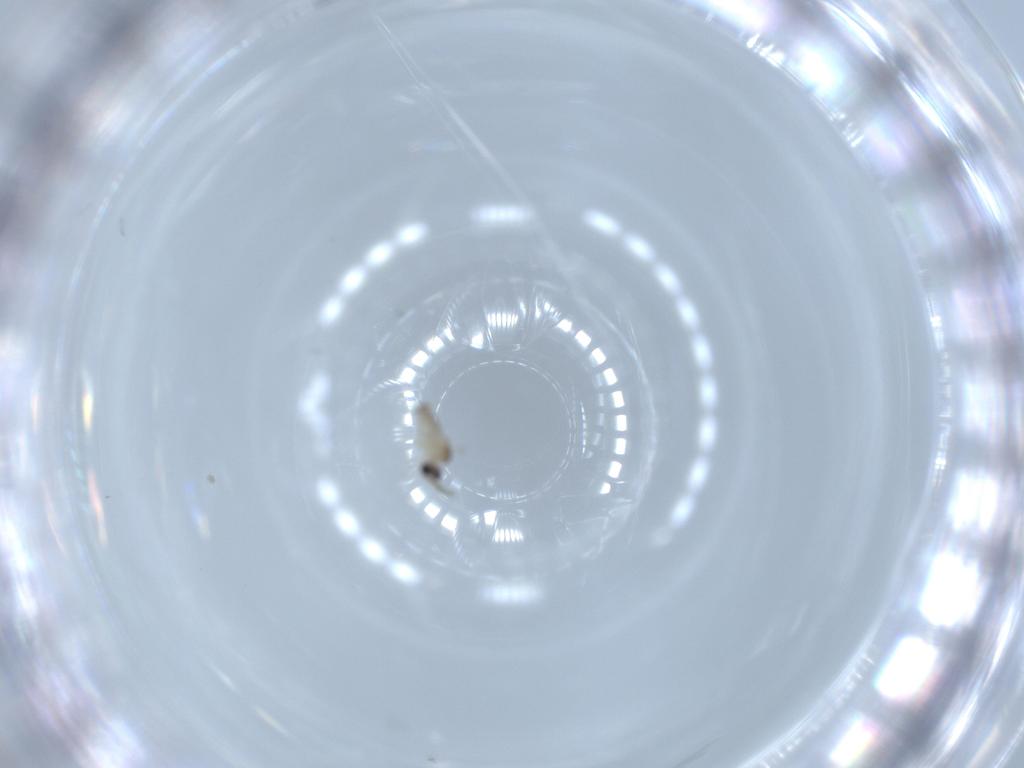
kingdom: Animalia
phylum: Arthropoda
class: Insecta
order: Diptera
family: Cecidomyiidae
